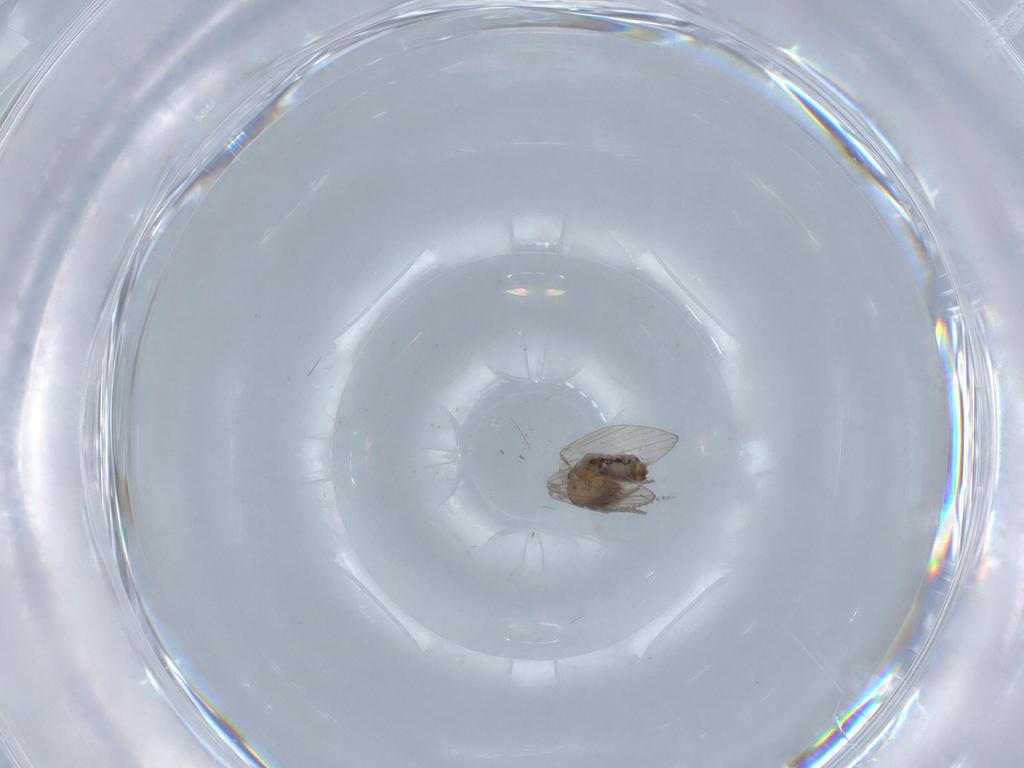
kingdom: Animalia
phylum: Arthropoda
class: Insecta
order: Diptera
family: Psychodidae
